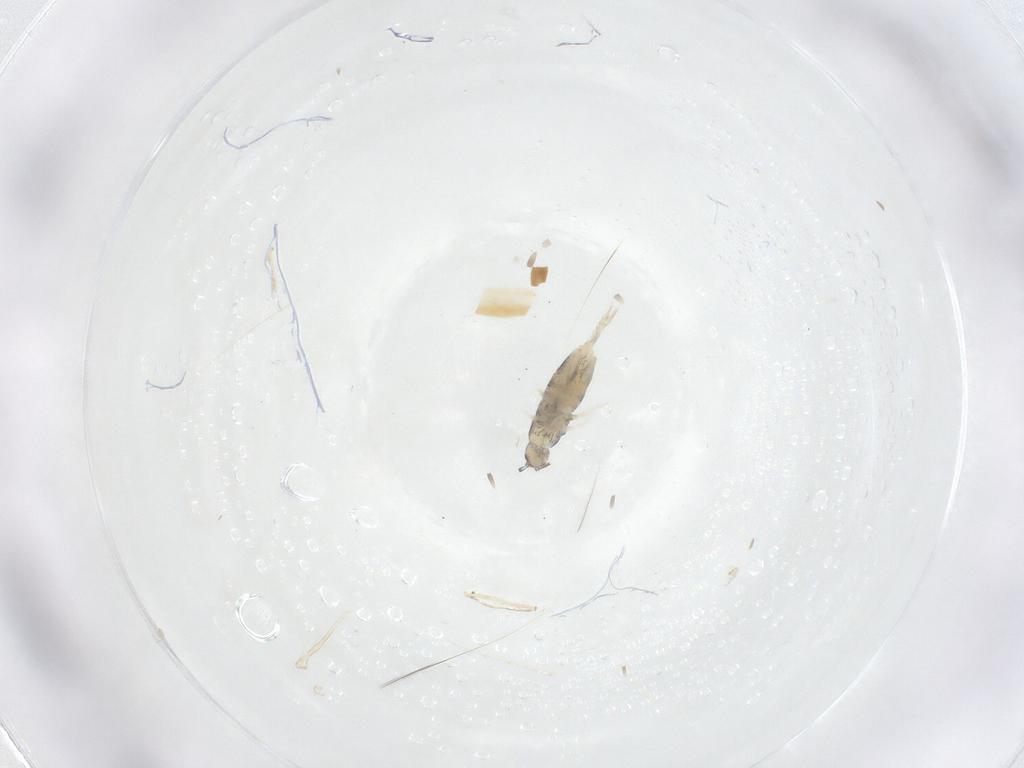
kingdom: Animalia
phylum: Arthropoda
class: Collembola
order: Entomobryomorpha
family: Entomobryidae
